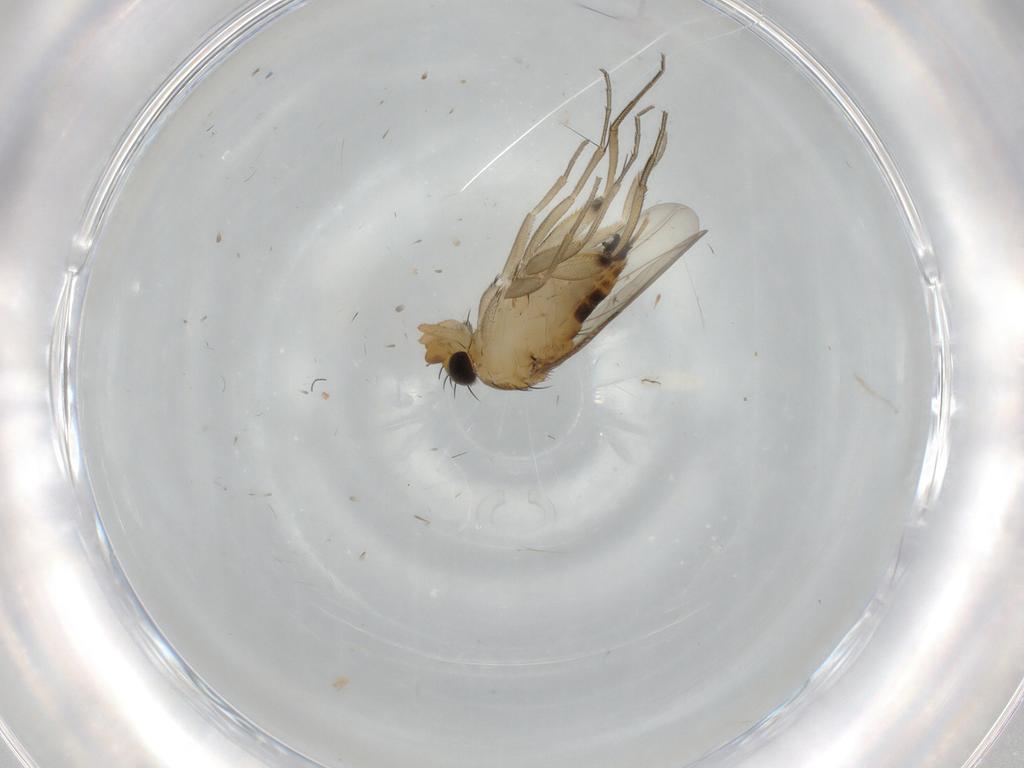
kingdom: Animalia
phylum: Arthropoda
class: Insecta
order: Diptera
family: Phoridae
